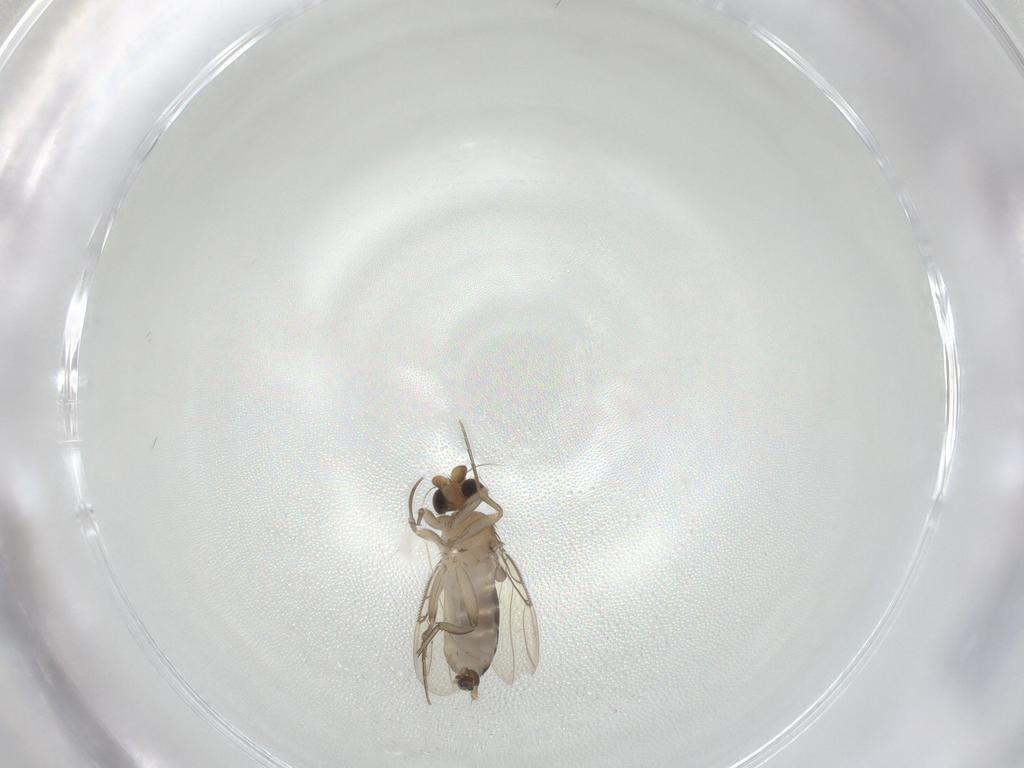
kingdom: Animalia
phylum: Arthropoda
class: Insecta
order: Diptera
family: Phoridae
